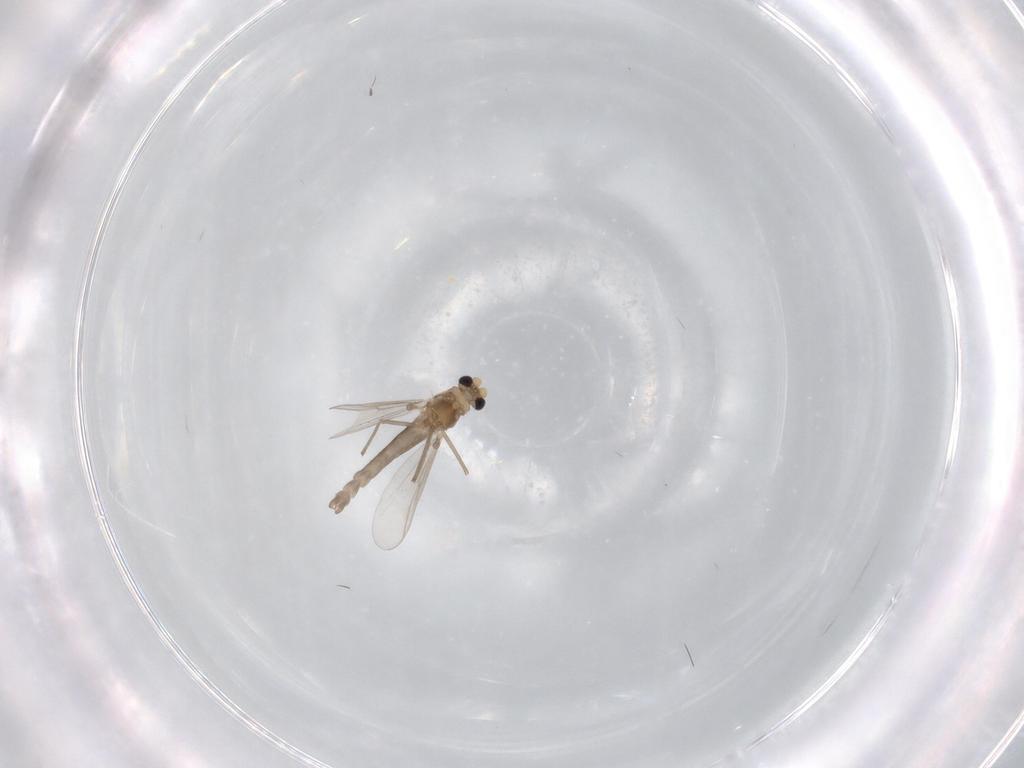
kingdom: Animalia
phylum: Arthropoda
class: Insecta
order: Diptera
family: Chironomidae
